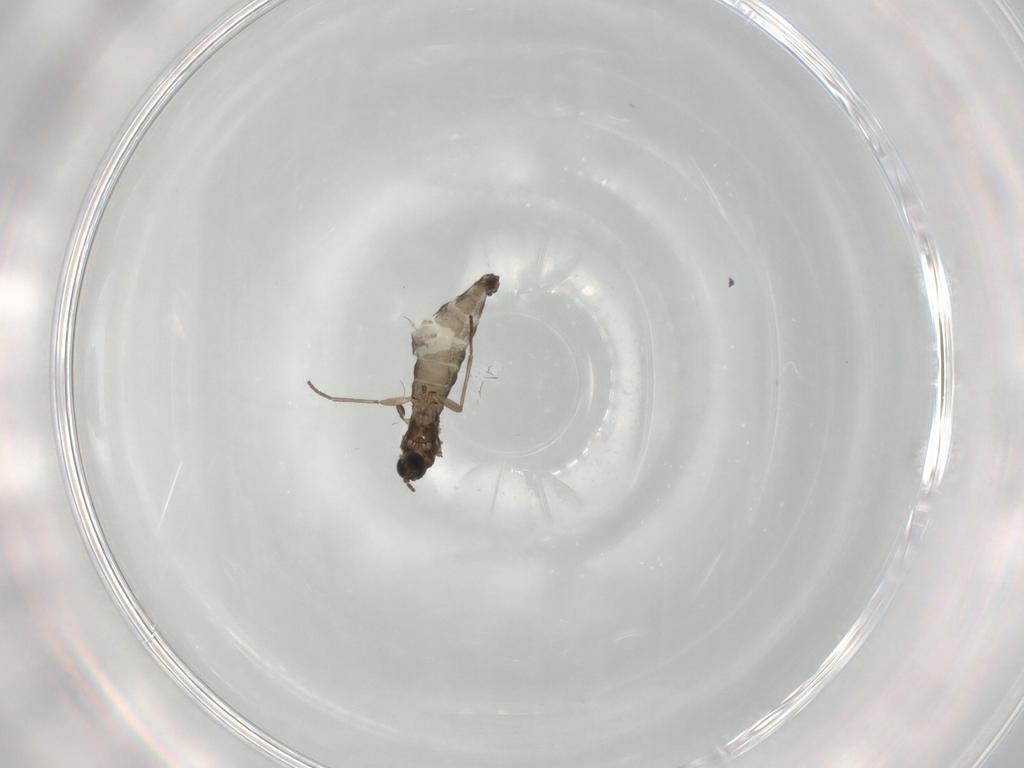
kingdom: Animalia
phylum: Arthropoda
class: Insecta
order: Diptera
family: Sciaridae
